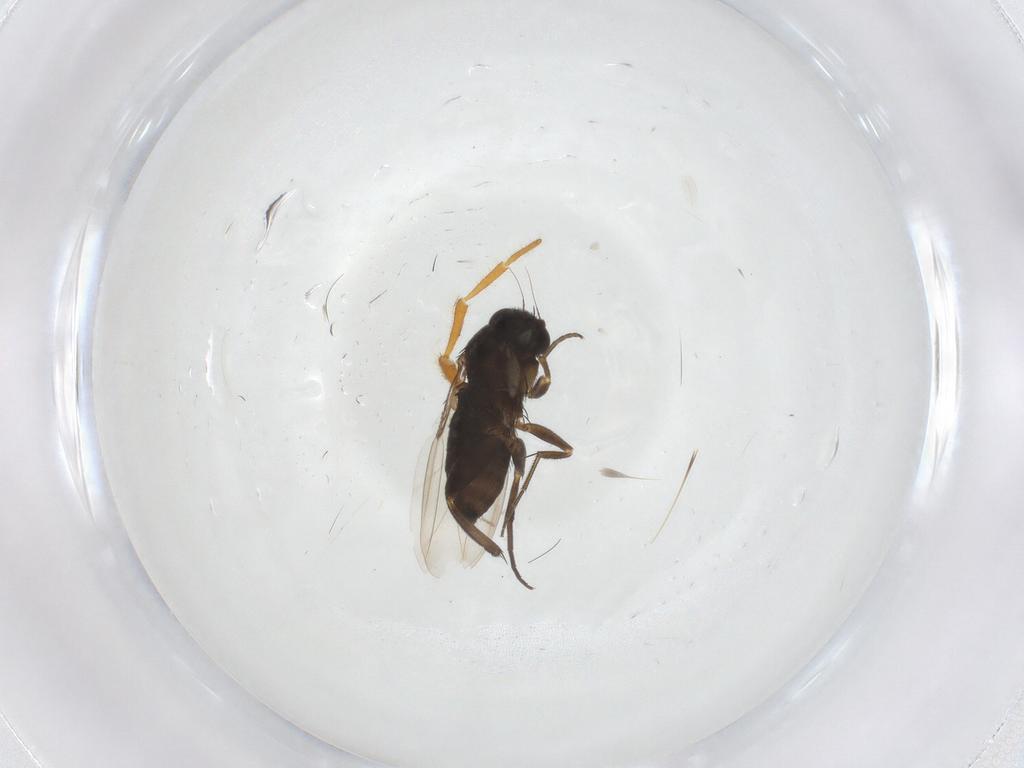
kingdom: Animalia
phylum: Arthropoda
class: Insecta
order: Diptera
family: Phoridae
